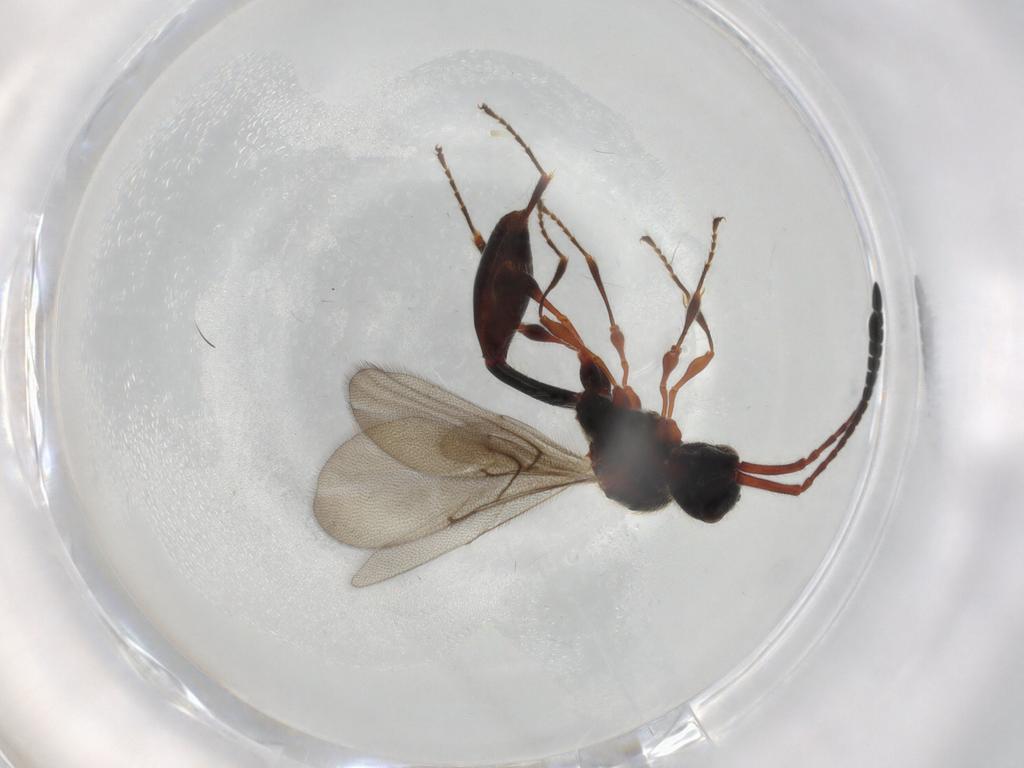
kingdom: Animalia
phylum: Arthropoda
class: Insecta
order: Hymenoptera
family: Diapriidae
